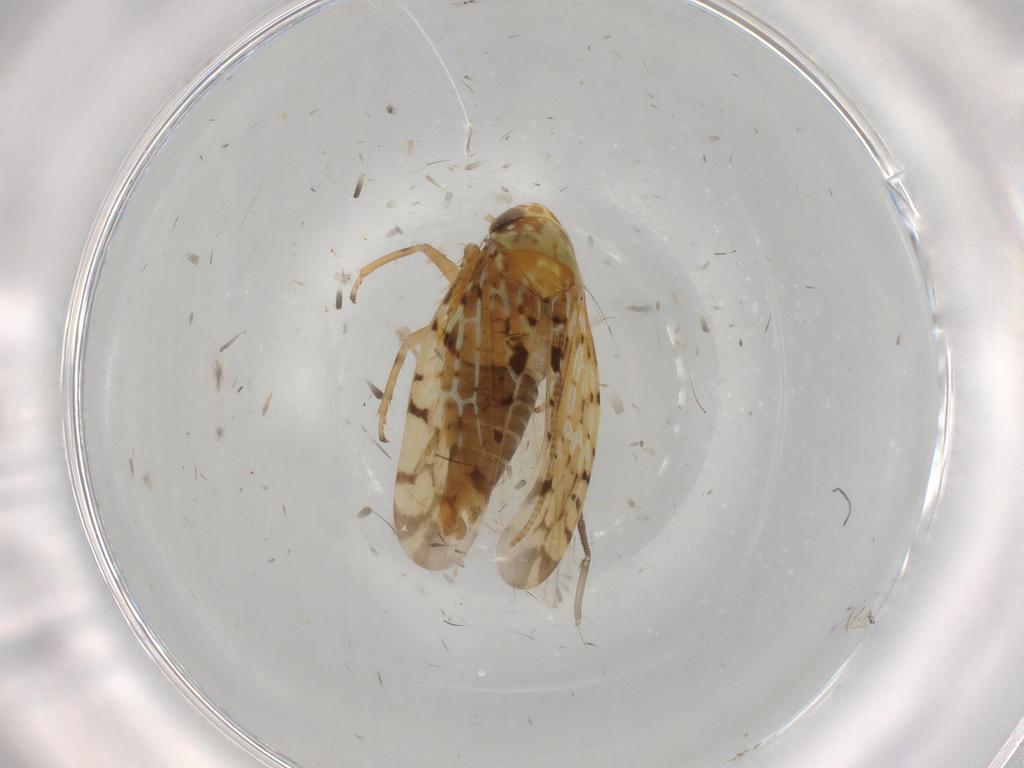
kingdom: Animalia
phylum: Arthropoda
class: Insecta
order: Hemiptera
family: Cicadellidae
